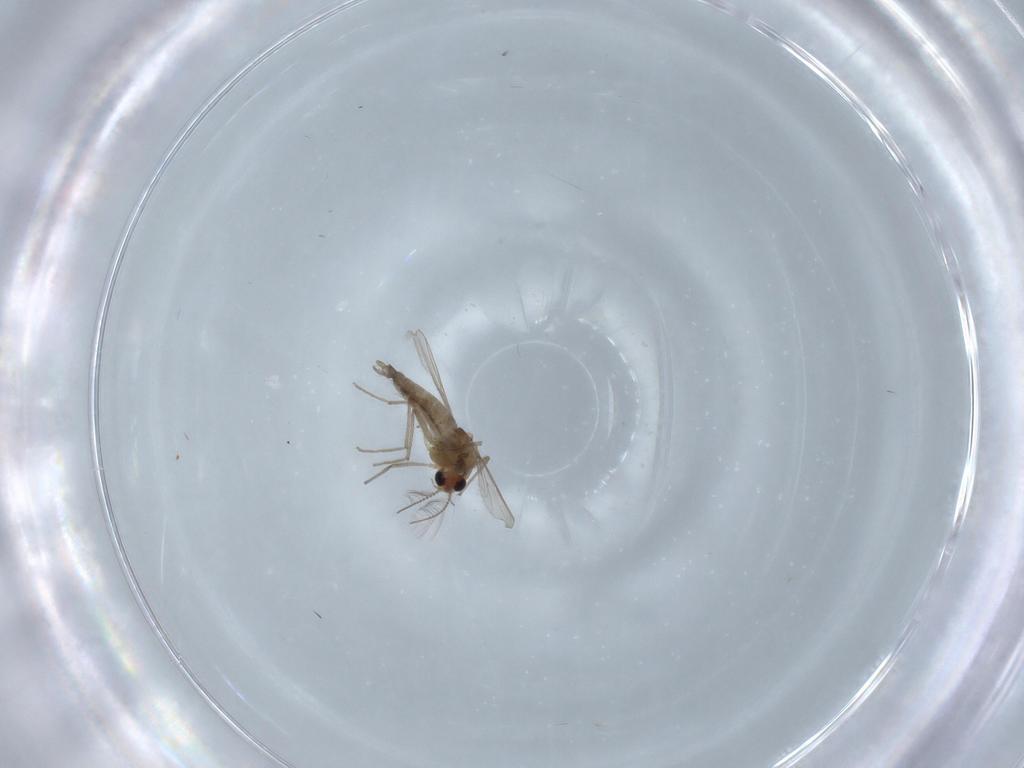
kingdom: Animalia
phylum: Arthropoda
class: Insecta
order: Diptera
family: Chironomidae
